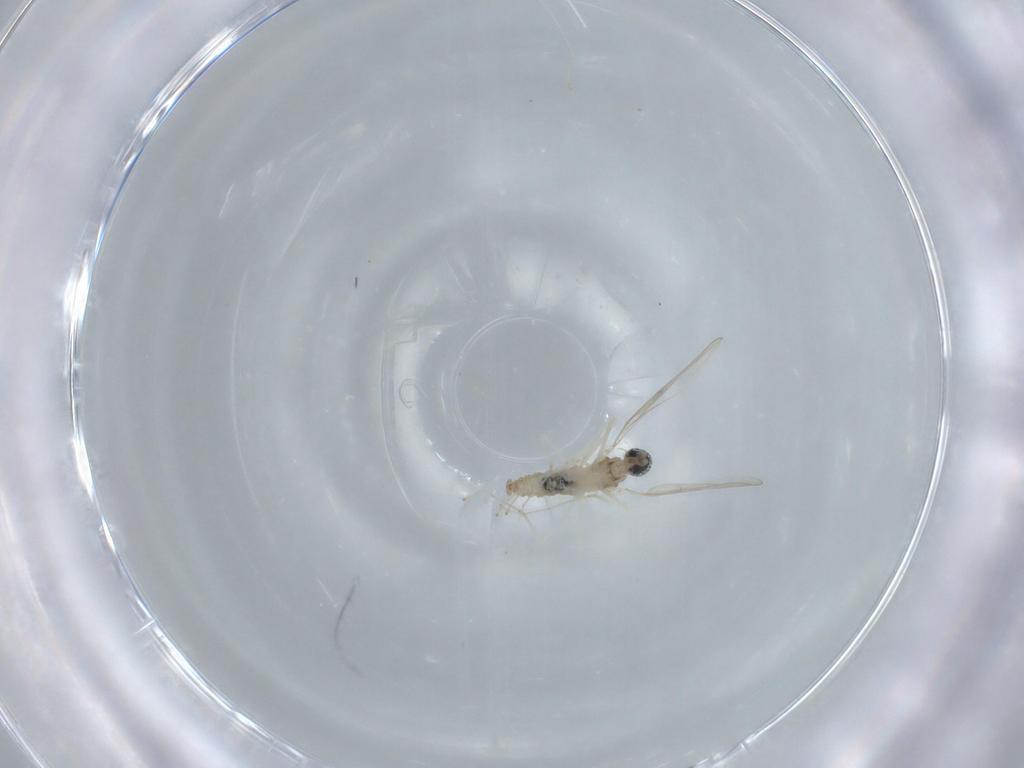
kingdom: Animalia
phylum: Arthropoda
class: Insecta
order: Diptera
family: Cecidomyiidae
